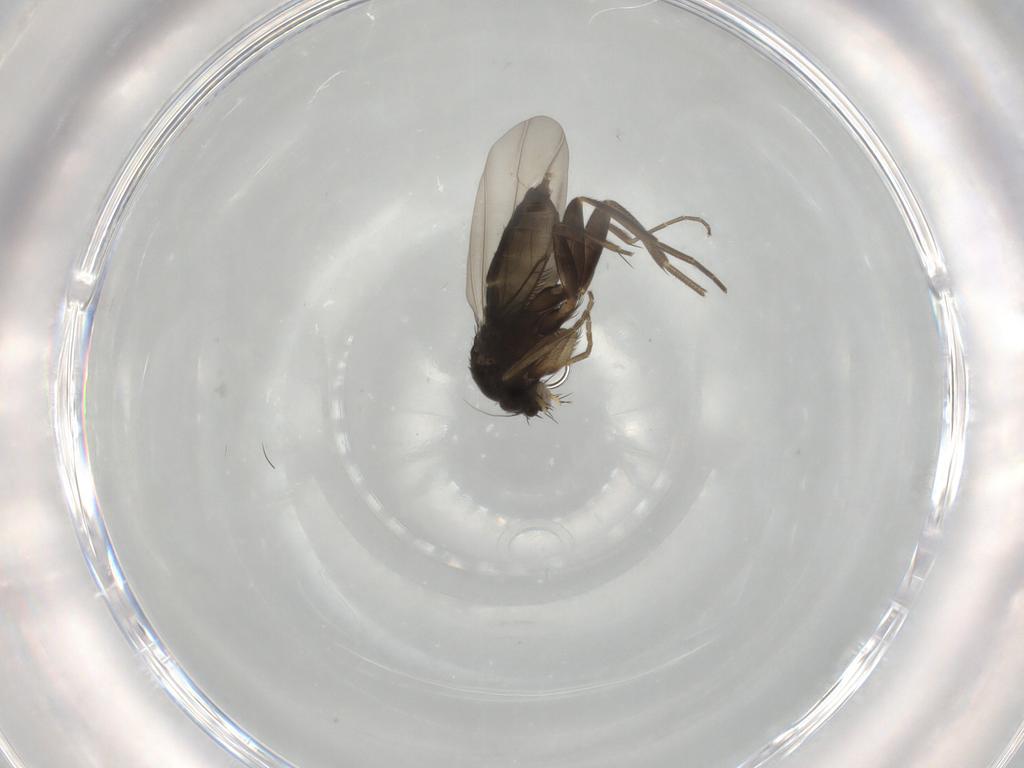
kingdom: Animalia
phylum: Arthropoda
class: Insecta
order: Diptera
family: Phoridae
